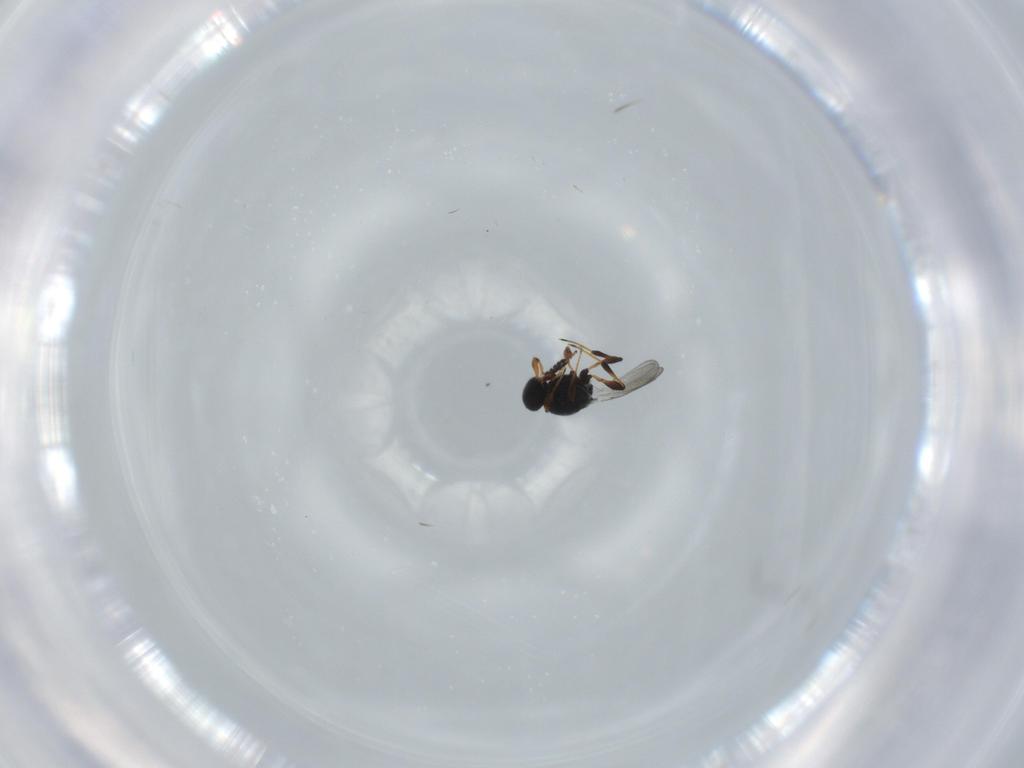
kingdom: Animalia
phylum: Arthropoda
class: Insecta
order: Hymenoptera
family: Platygastridae
